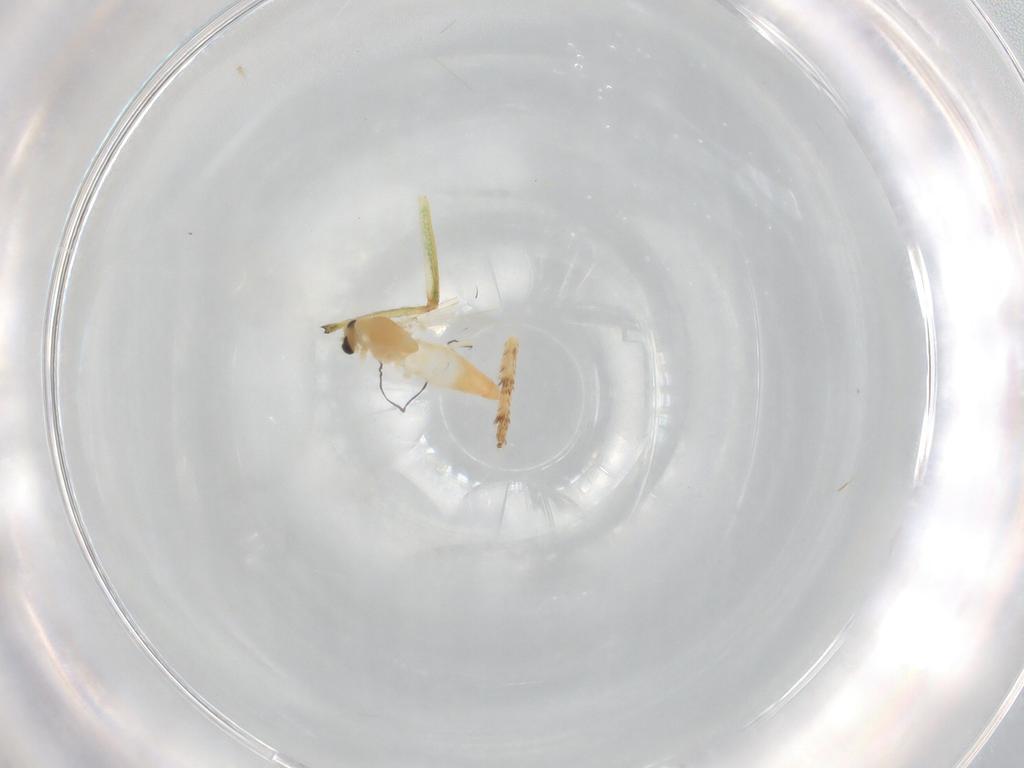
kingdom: Animalia
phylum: Arthropoda
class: Insecta
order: Diptera
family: Chironomidae
